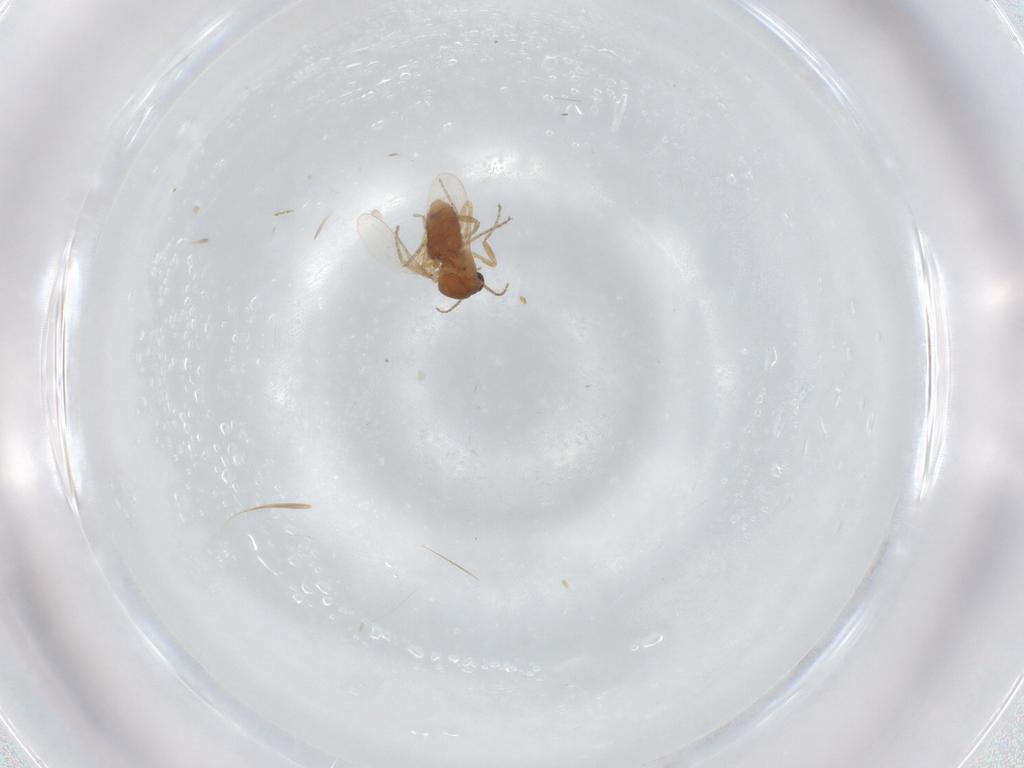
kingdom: Animalia
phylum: Arthropoda
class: Insecta
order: Diptera
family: Ceratopogonidae
